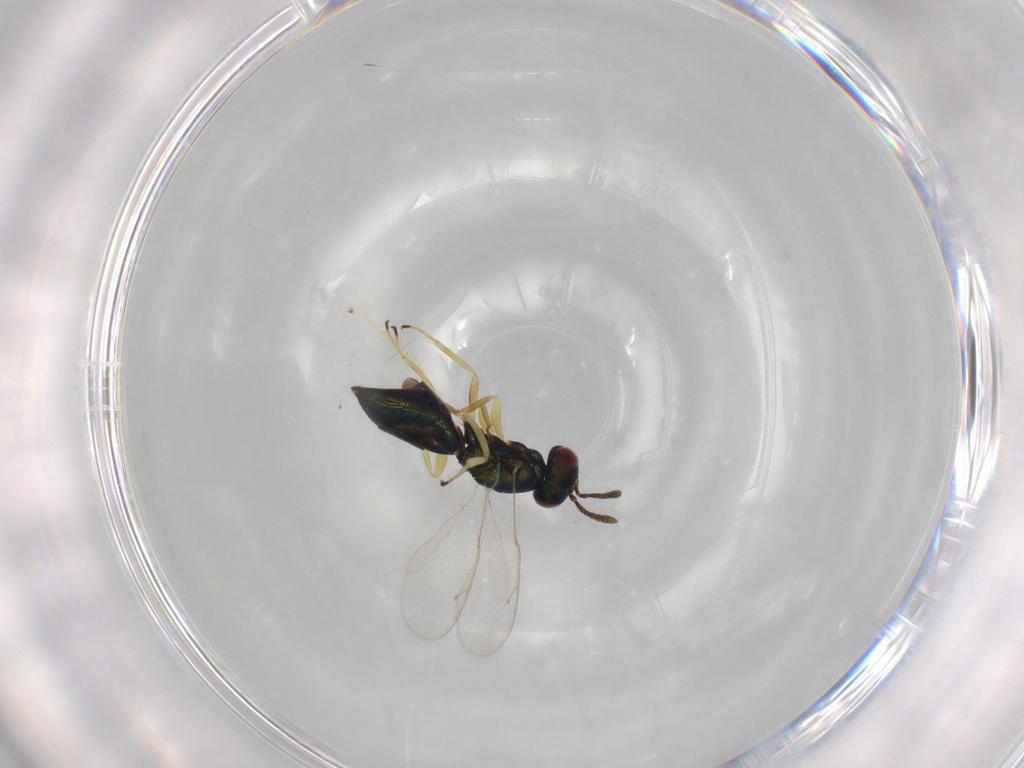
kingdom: Animalia
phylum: Arthropoda
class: Insecta
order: Hymenoptera
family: Pteromalidae
